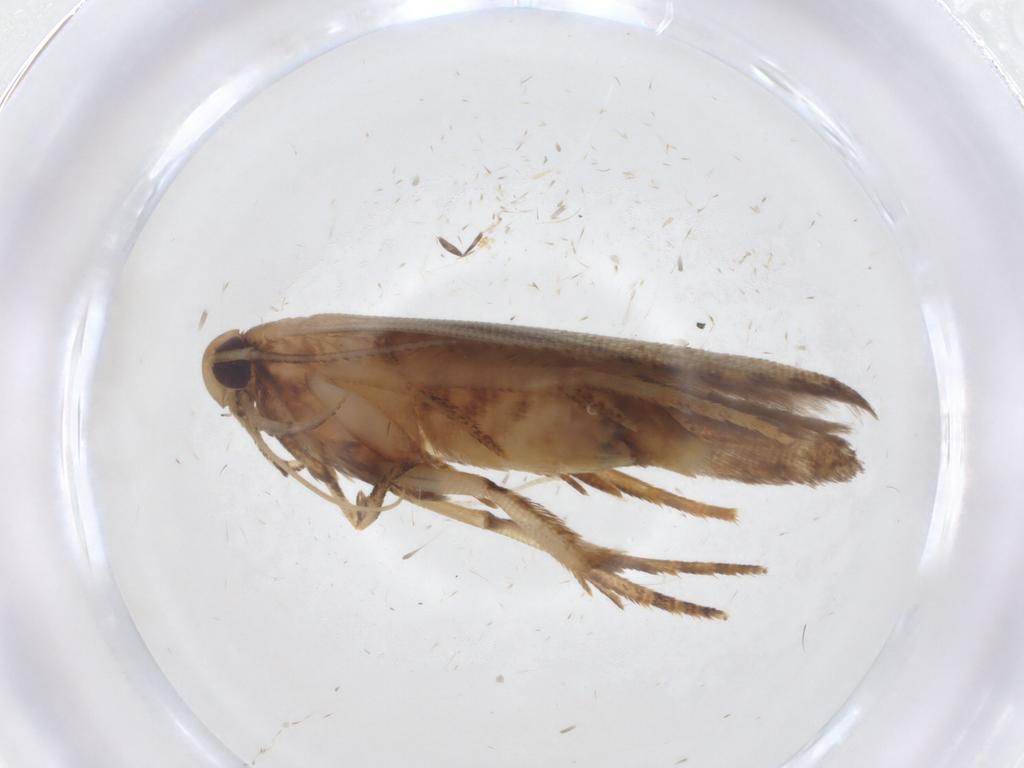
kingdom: Animalia
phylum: Arthropoda
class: Insecta
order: Lepidoptera
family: Cosmopterigidae
